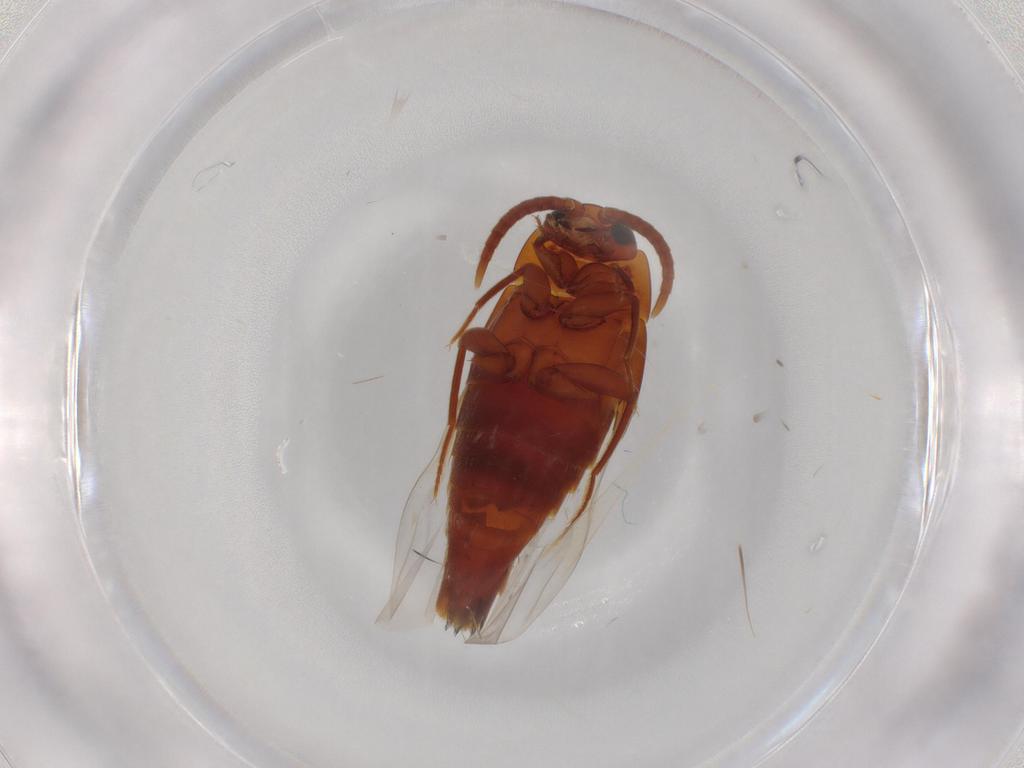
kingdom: Animalia
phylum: Arthropoda
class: Insecta
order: Coleoptera
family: Staphylinidae
